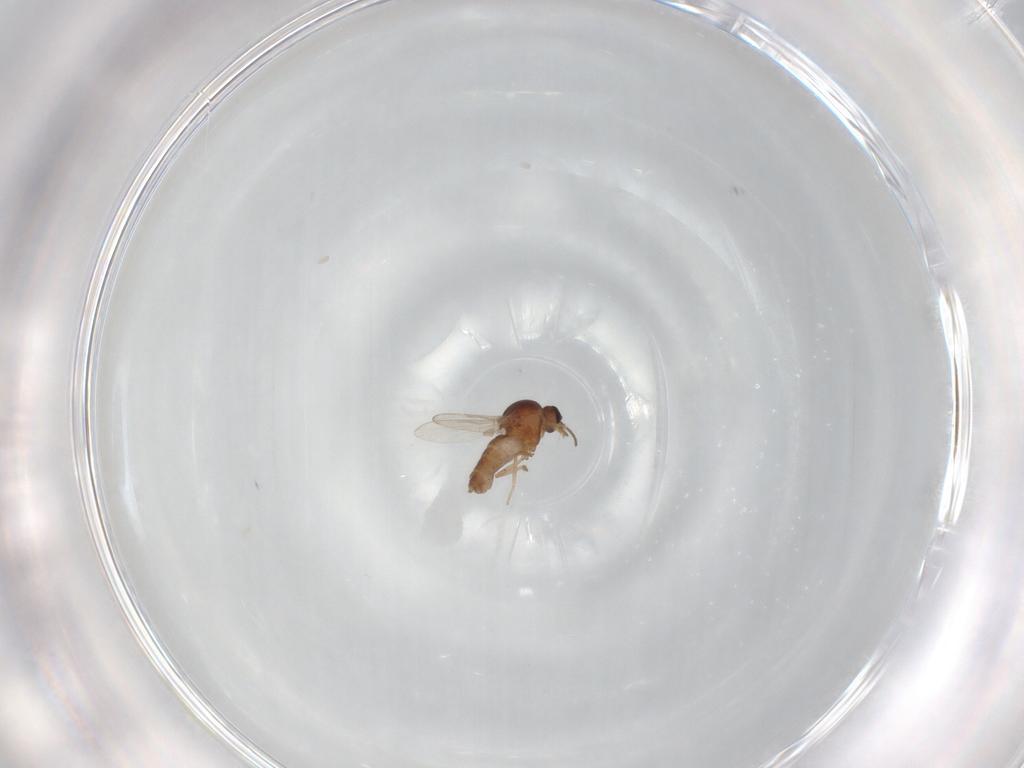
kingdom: Animalia
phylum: Arthropoda
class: Insecta
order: Diptera
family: Ceratopogonidae
